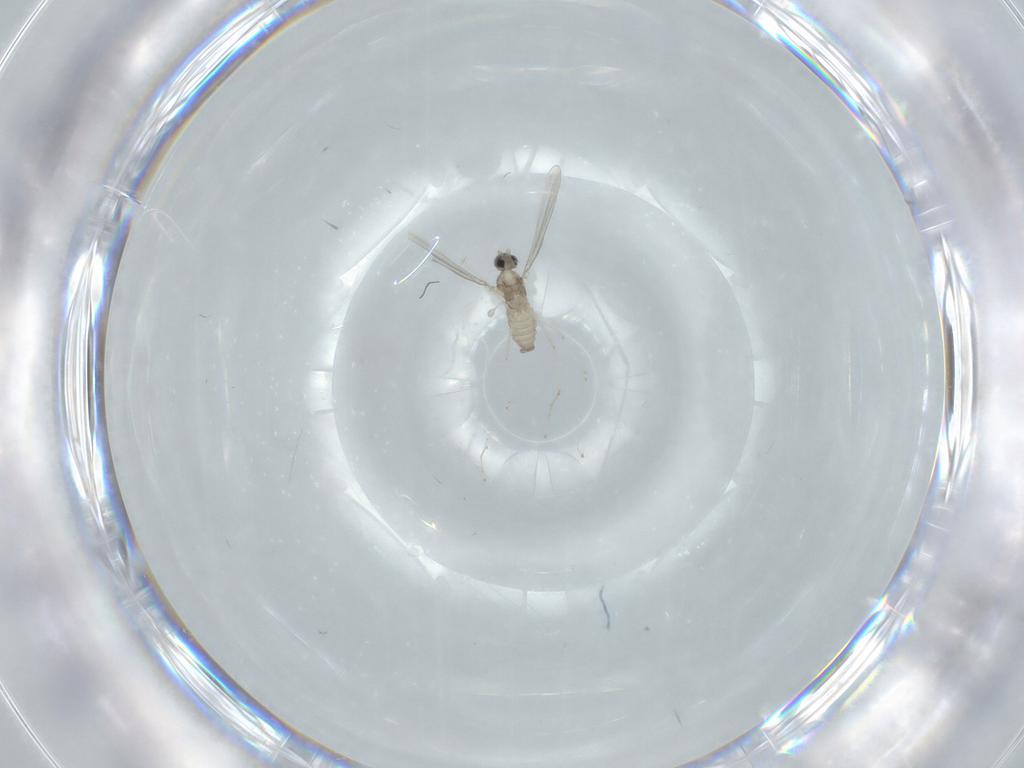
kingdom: Animalia
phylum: Arthropoda
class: Insecta
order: Diptera
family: Cecidomyiidae
